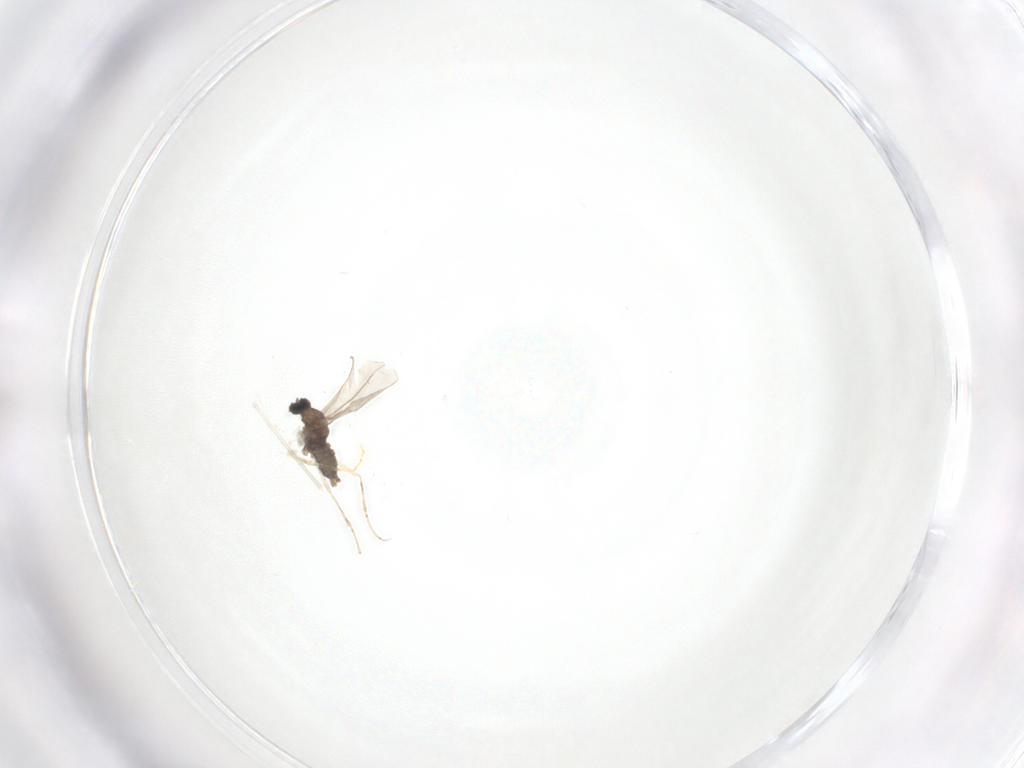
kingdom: Animalia
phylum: Arthropoda
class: Insecta
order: Diptera
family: Cecidomyiidae
